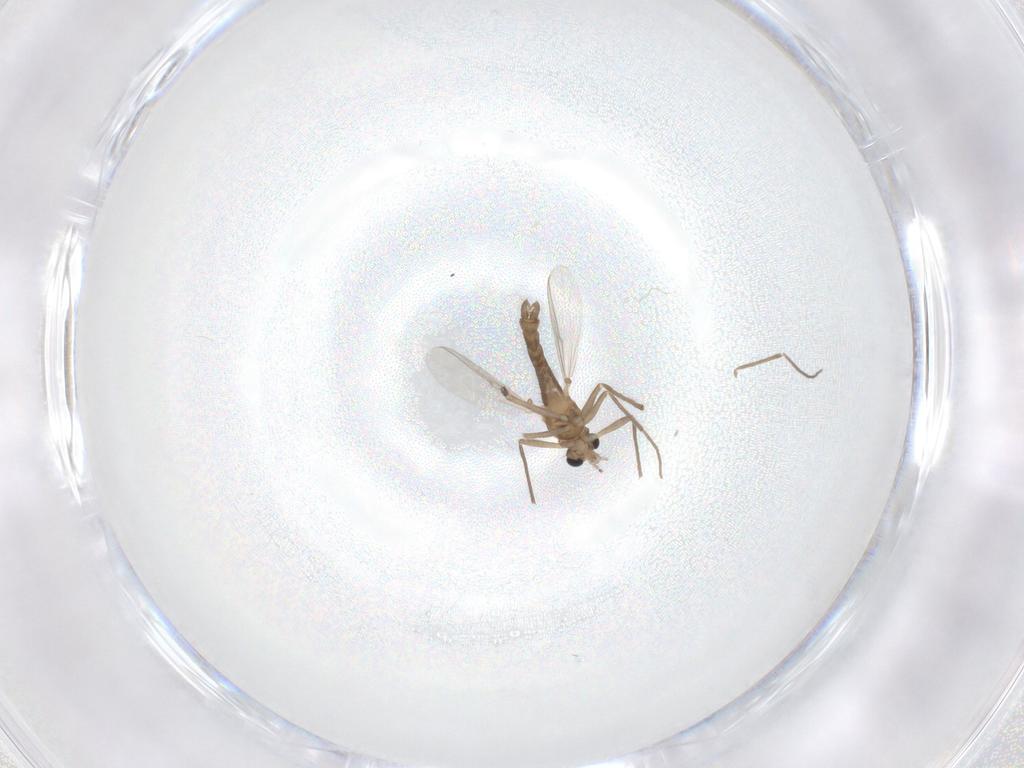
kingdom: Animalia
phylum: Arthropoda
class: Insecta
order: Diptera
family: Chironomidae
